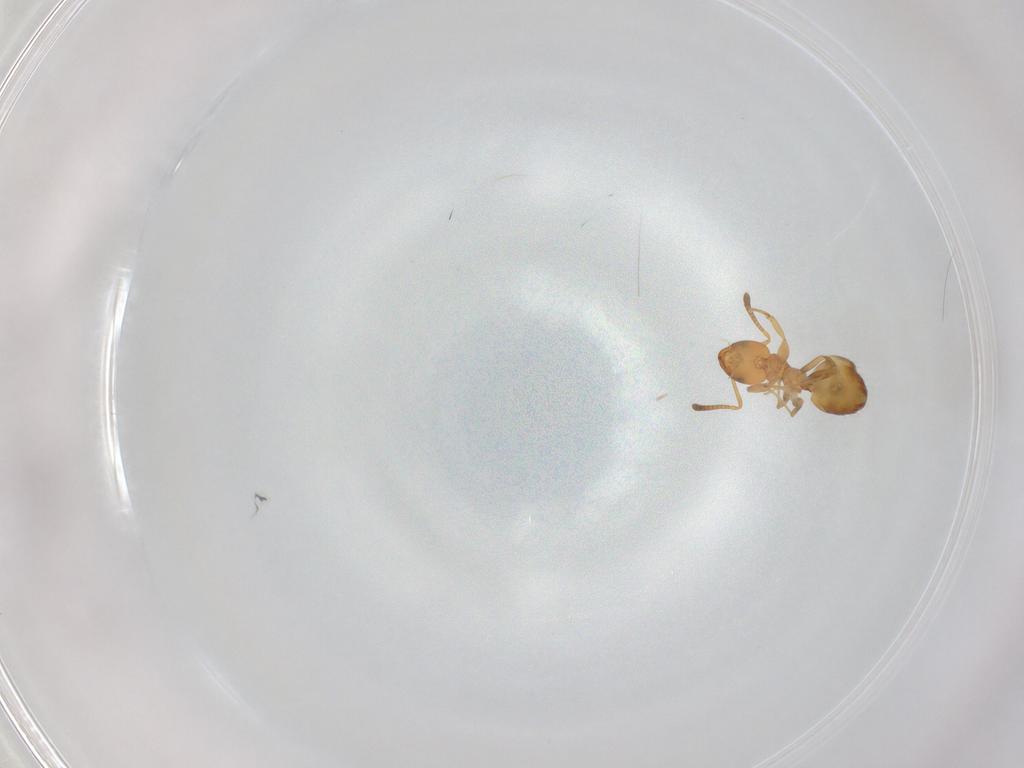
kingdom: Animalia
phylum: Arthropoda
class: Insecta
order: Hymenoptera
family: Formicidae
